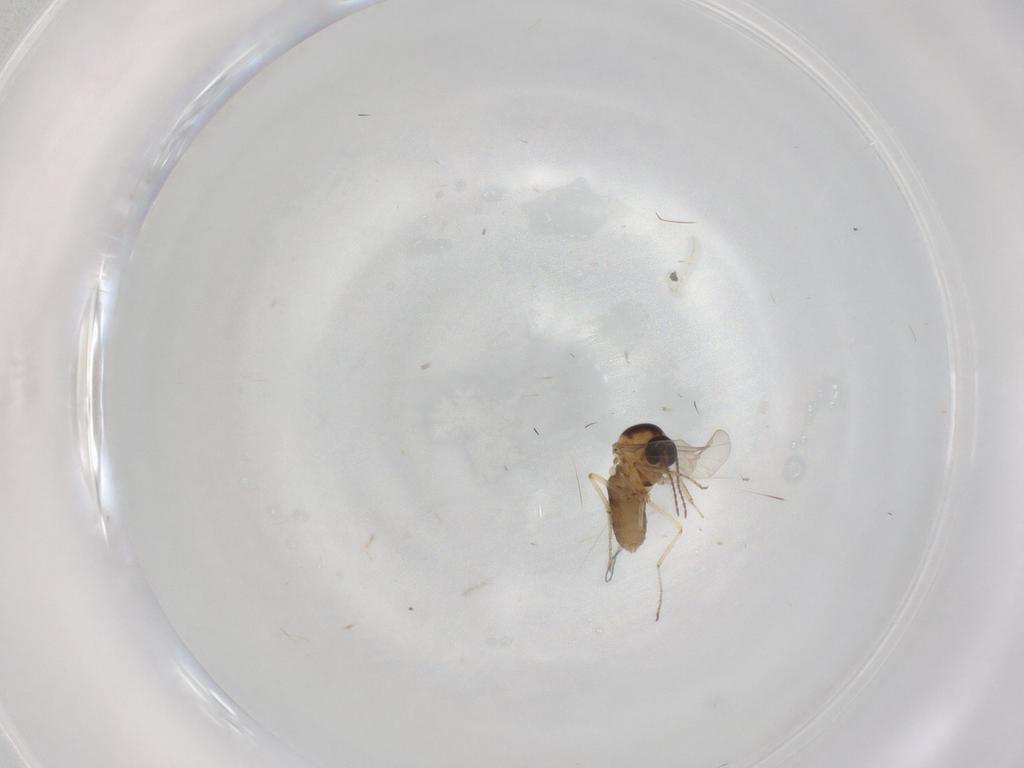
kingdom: Animalia
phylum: Arthropoda
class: Insecta
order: Diptera
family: Ceratopogonidae
